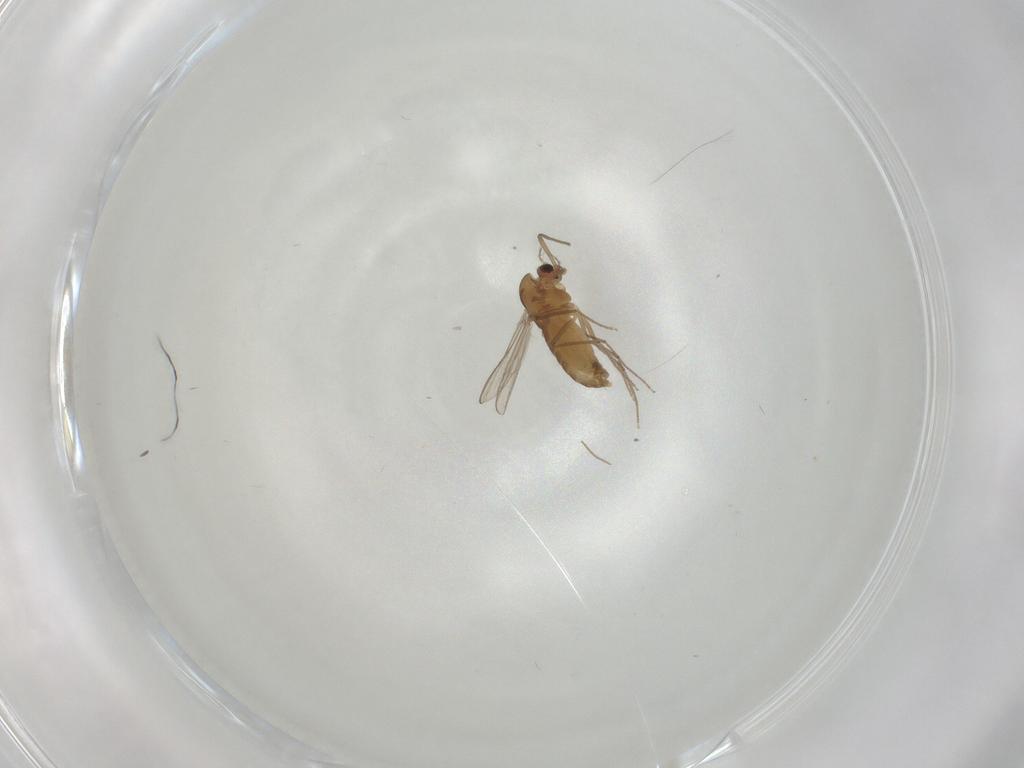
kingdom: Animalia
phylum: Arthropoda
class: Insecta
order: Diptera
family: Chironomidae
